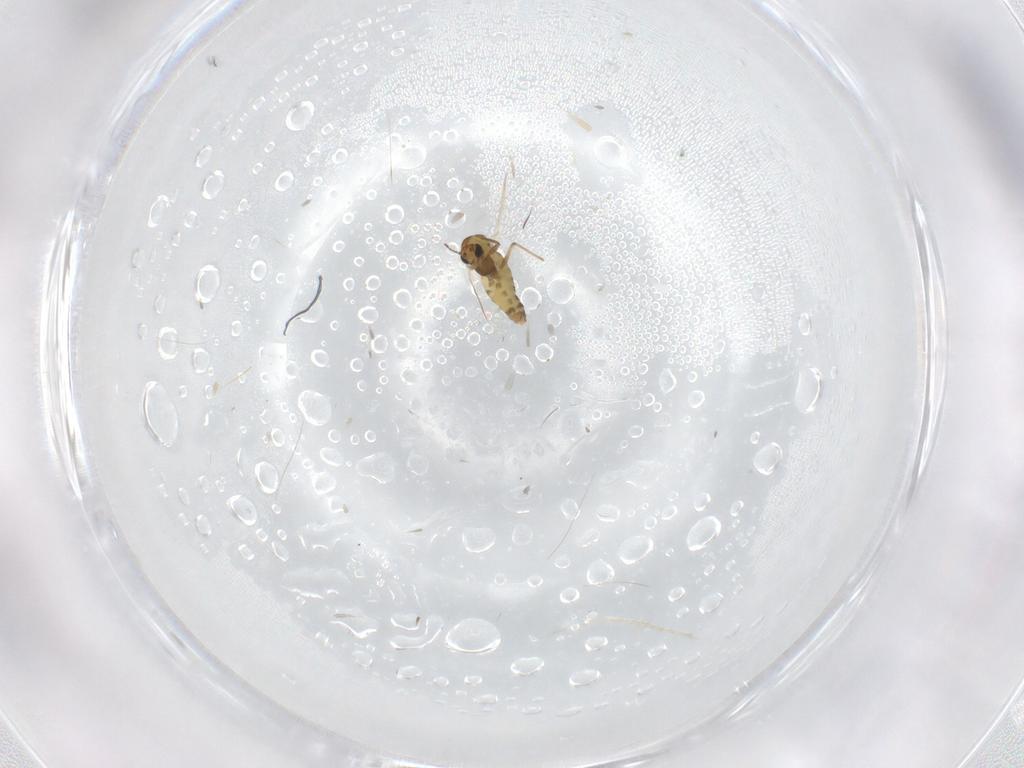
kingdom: Animalia
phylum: Arthropoda
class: Insecta
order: Diptera
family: Chironomidae
